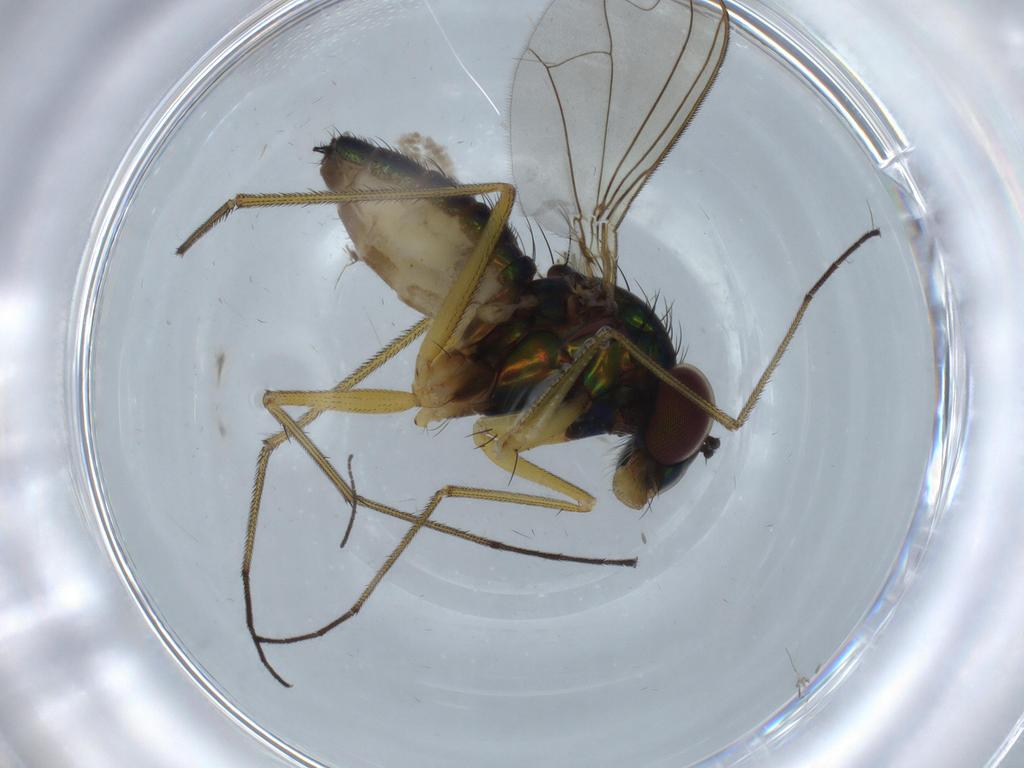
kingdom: Animalia
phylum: Arthropoda
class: Insecta
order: Diptera
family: Dolichopodidae
